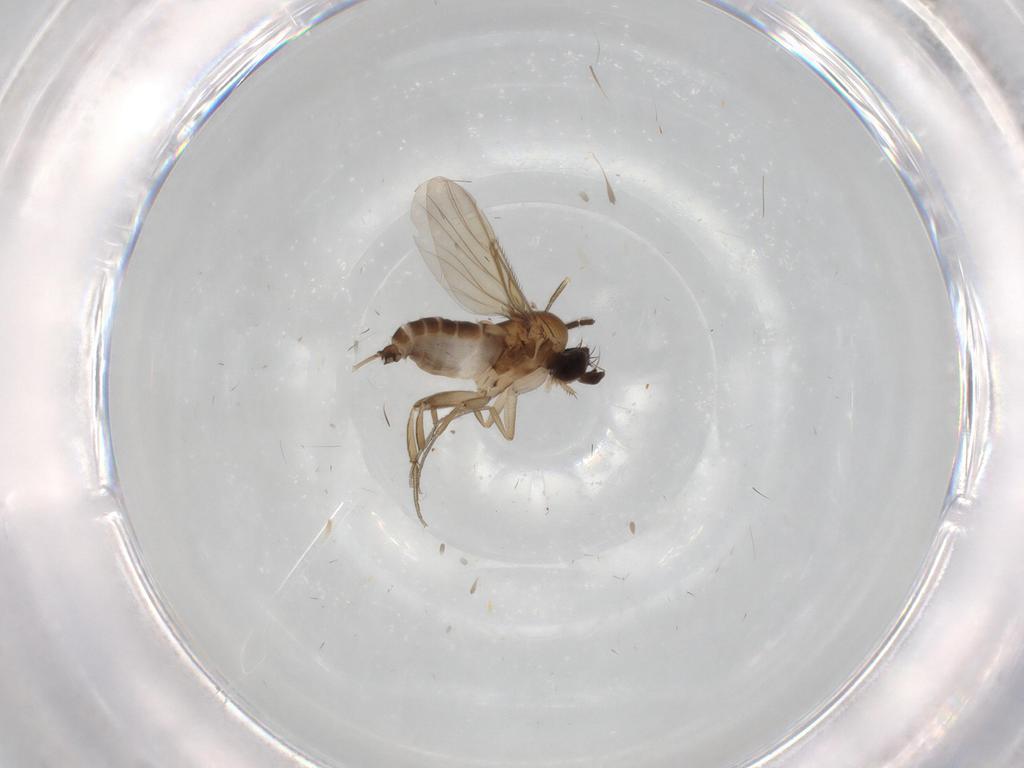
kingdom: Animalia
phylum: Arthropoda
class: Insecta
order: Diptera
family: Phoridae
